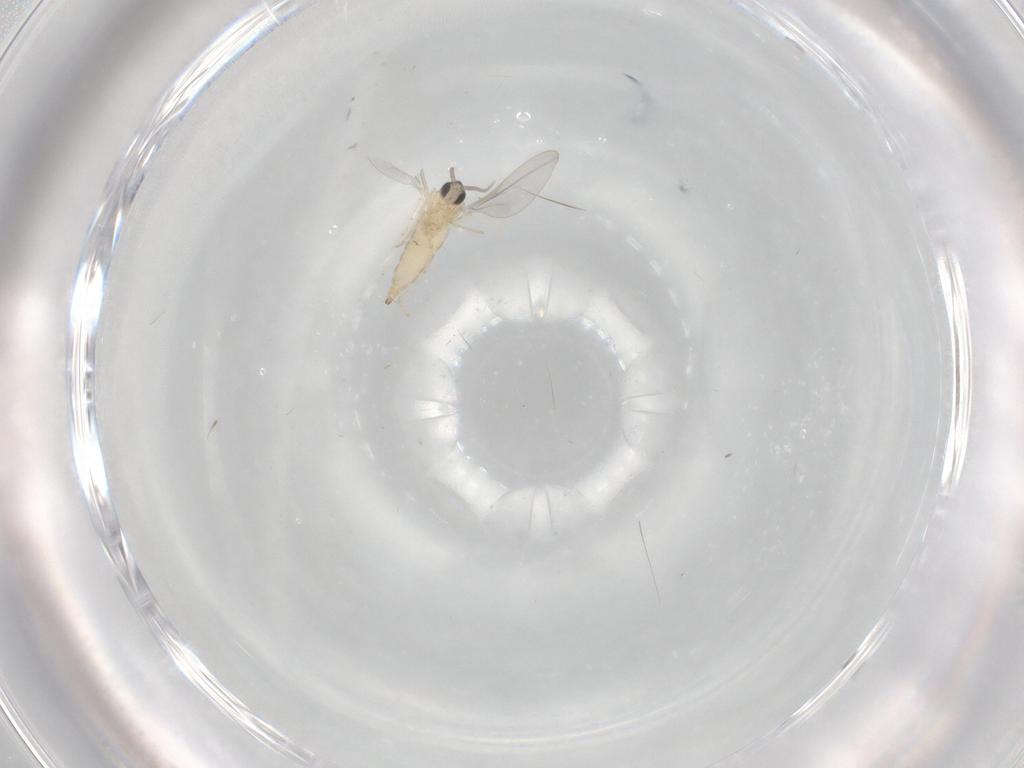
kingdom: Animalia
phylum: Arthropoda
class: Insecta
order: Diptera
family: Cecidomyiidae
